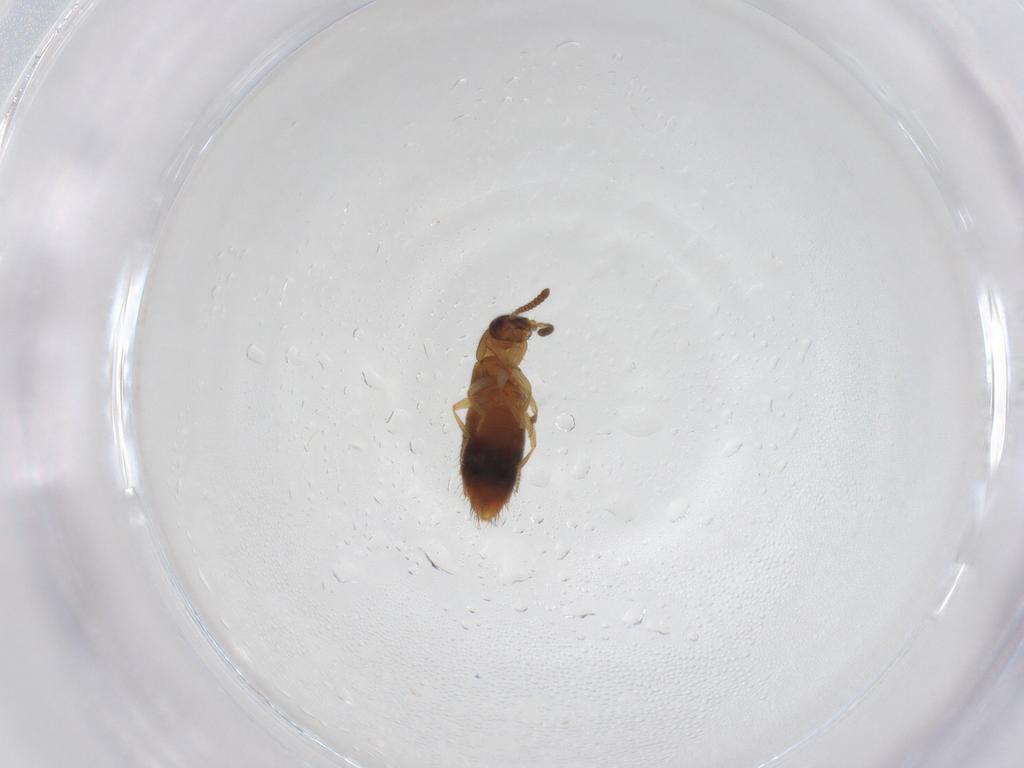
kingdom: Animalia
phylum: Arthropoda
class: Insecta
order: Coleoptera
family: Staphylinidae
